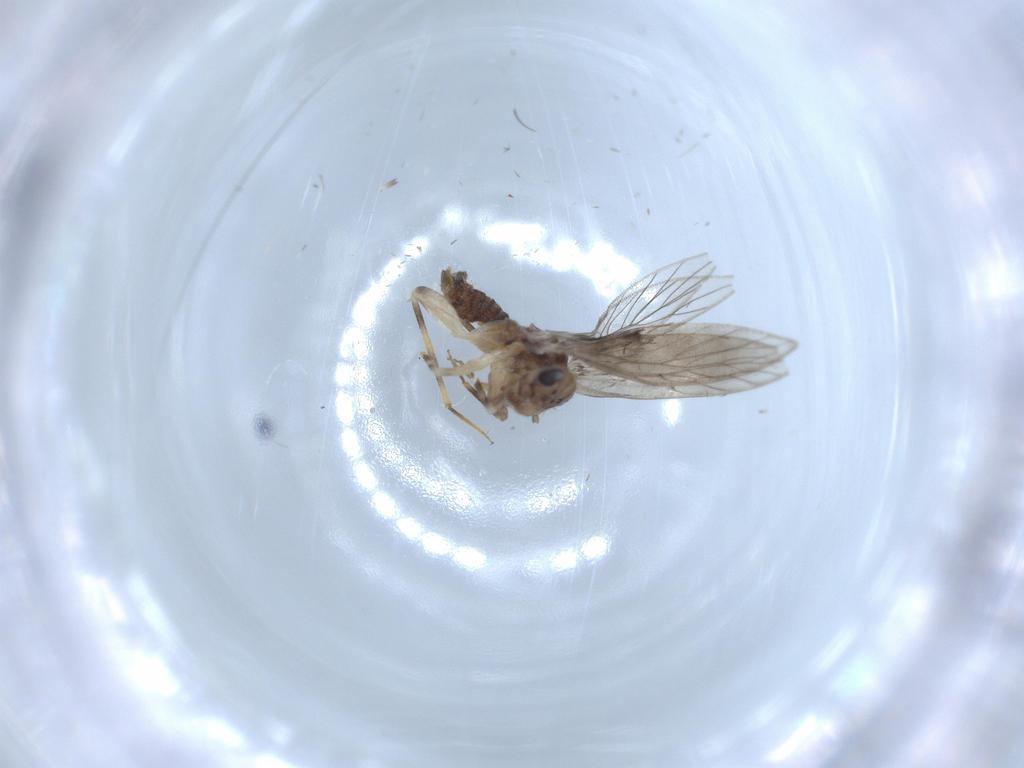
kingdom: Animalia
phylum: Arthropoda
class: Insecta
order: Psocodea
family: Lepidopsocidae
